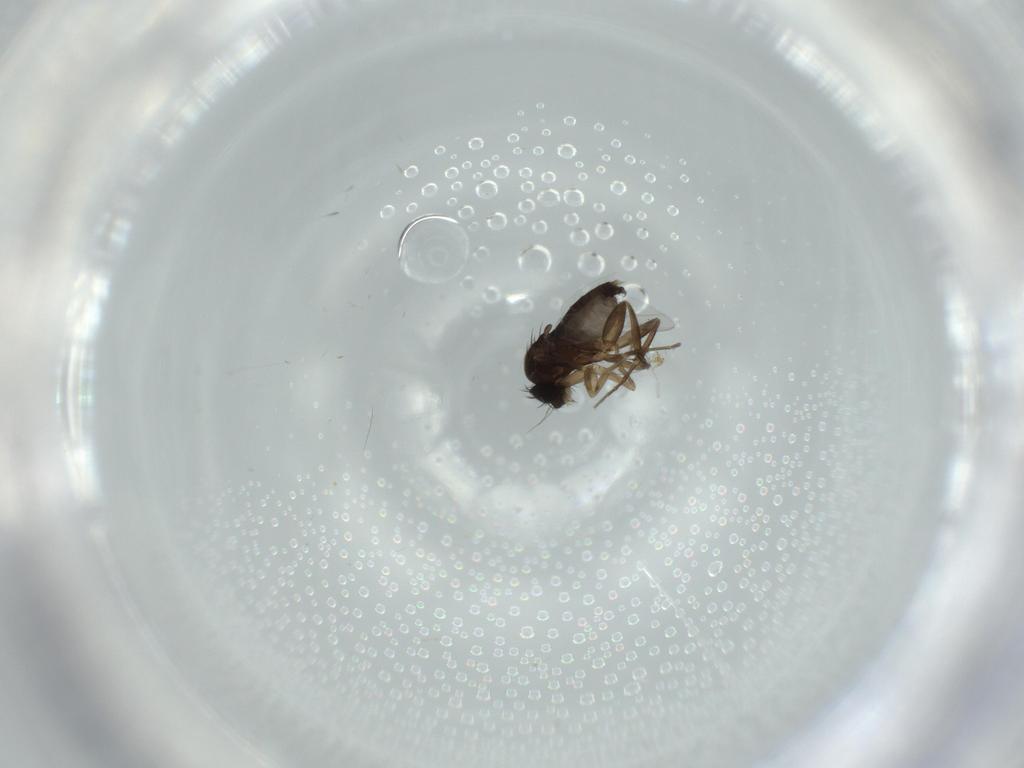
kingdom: Animalia
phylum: Arthropoda
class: Insecta
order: Diptera
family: Phoridae
